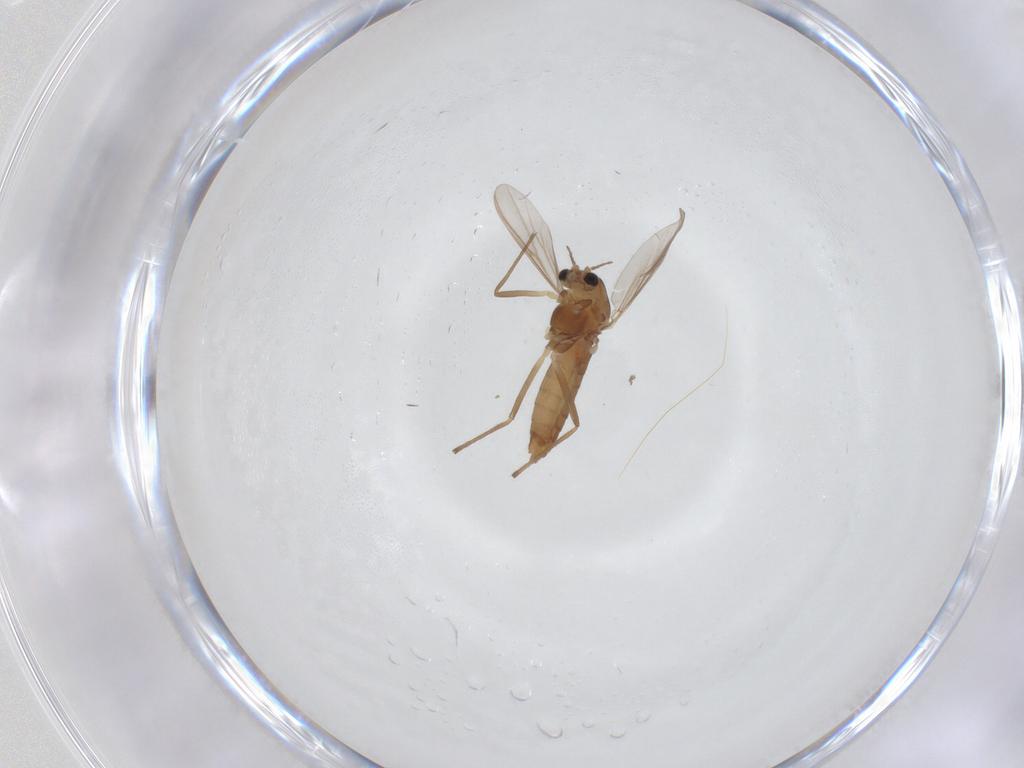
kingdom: Animalia
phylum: Arthropoda
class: Insecta
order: Diptera
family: Chironomidae
